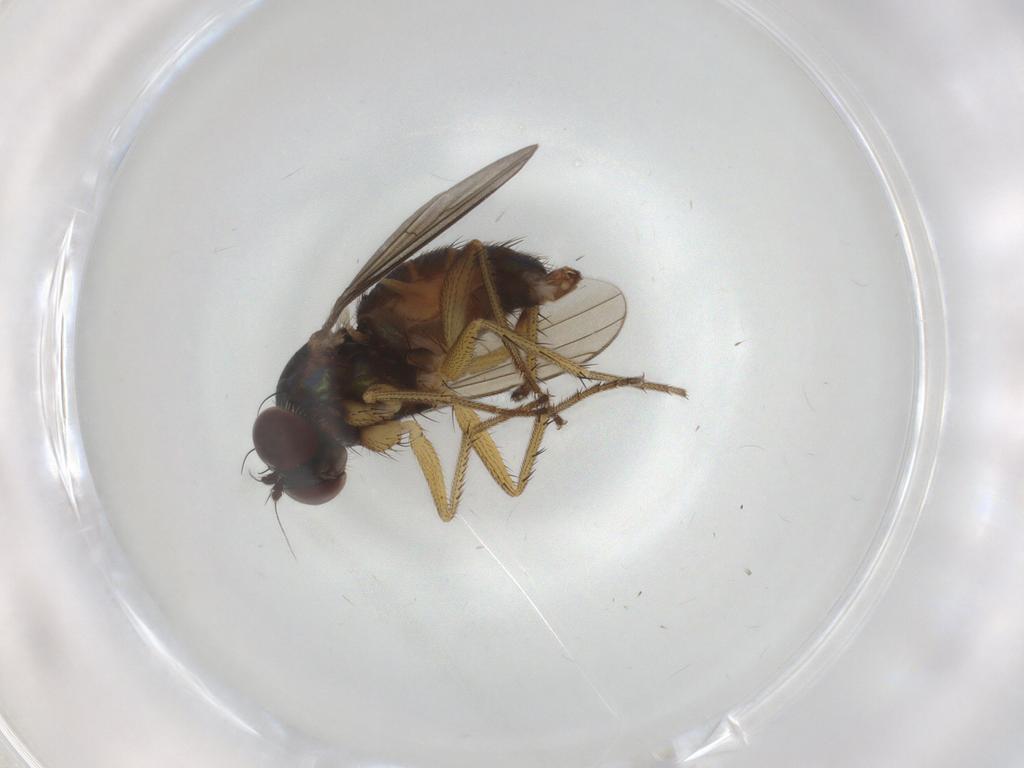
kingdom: Animalia
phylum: Arthropoda
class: Insecta
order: Diptera
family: Dolichopodidae
